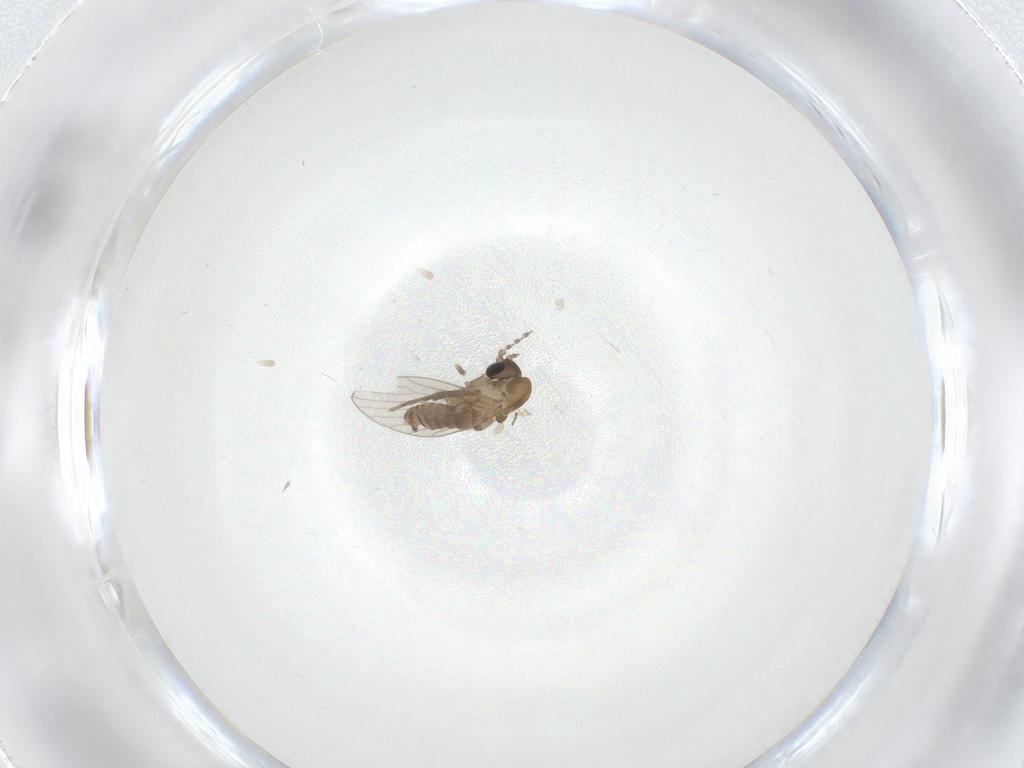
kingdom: Animalia
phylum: Arthropoda
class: Insecta
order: Diptera
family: Psychodidae
